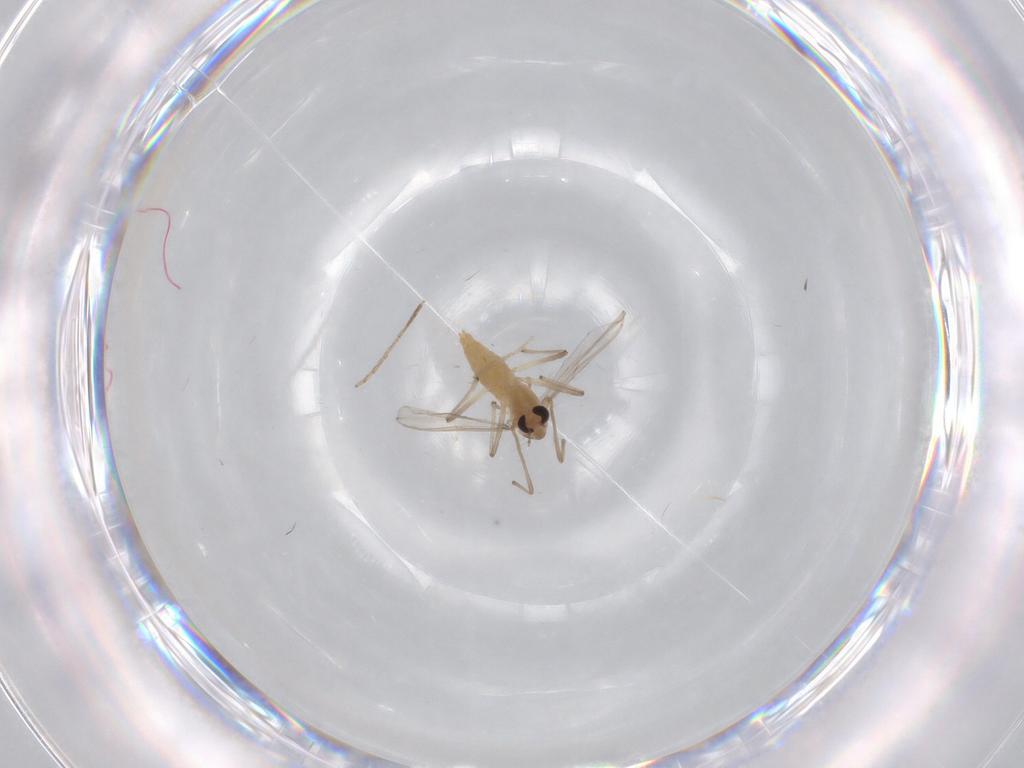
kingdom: Animalia
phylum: Arthropoda
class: Insecta
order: Diptera
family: Chironomidae
